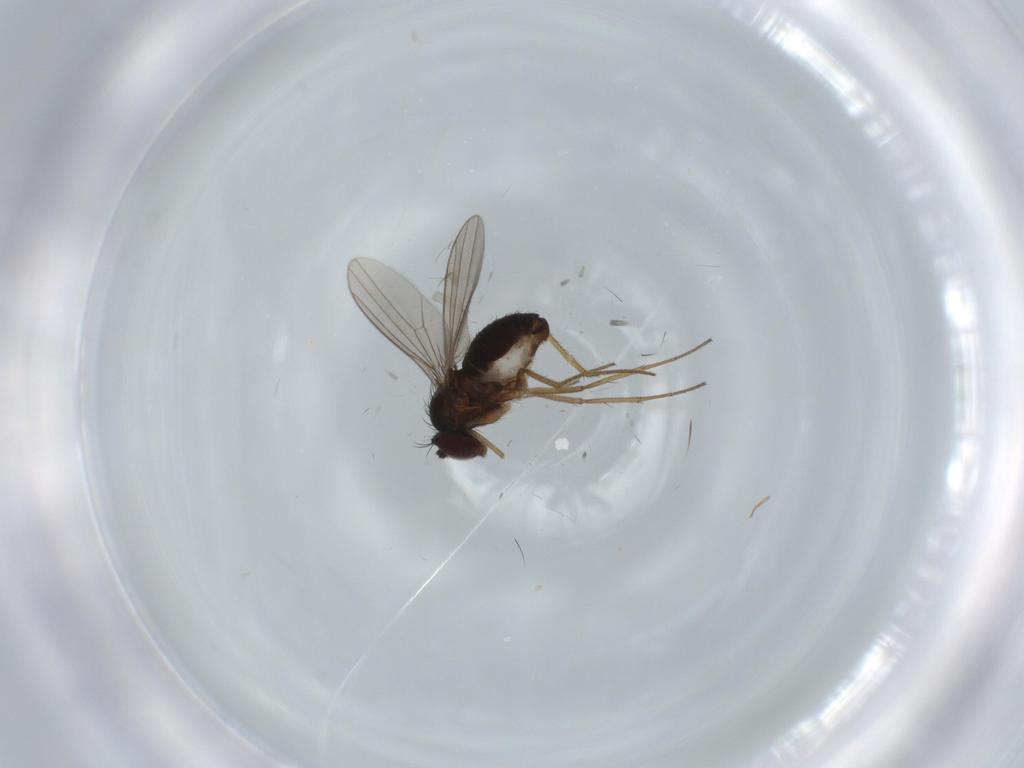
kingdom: Animalia
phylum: Arthropoda
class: Insecta
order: Diptera
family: Dolichopodidae
